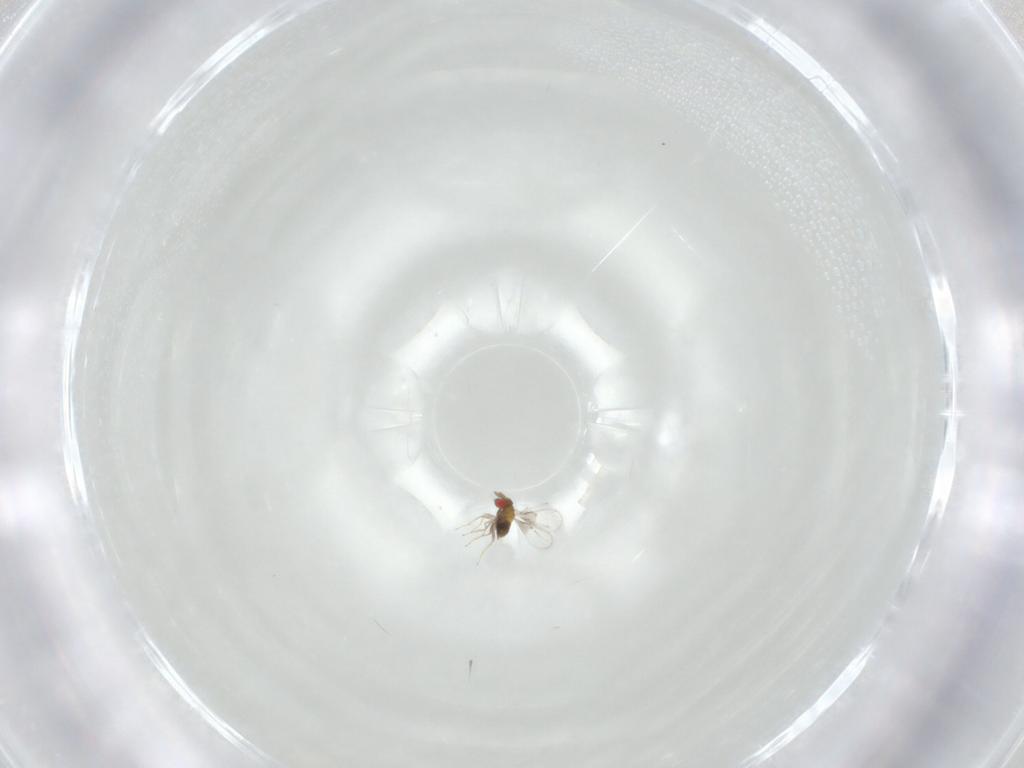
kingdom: Animalia
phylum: Arthropoda
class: Insecta
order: Hymenoptera
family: Trichogrammatidae
